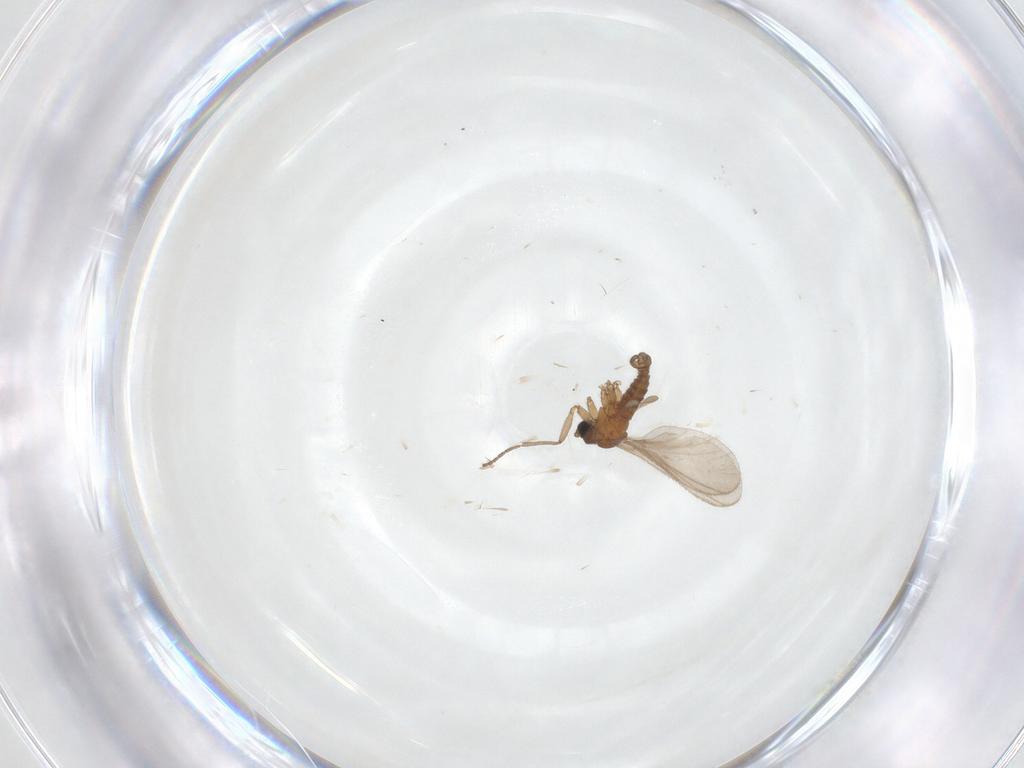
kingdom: Animalia
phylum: Arthropoda
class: Insecta
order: Diptera
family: Sciaridae
